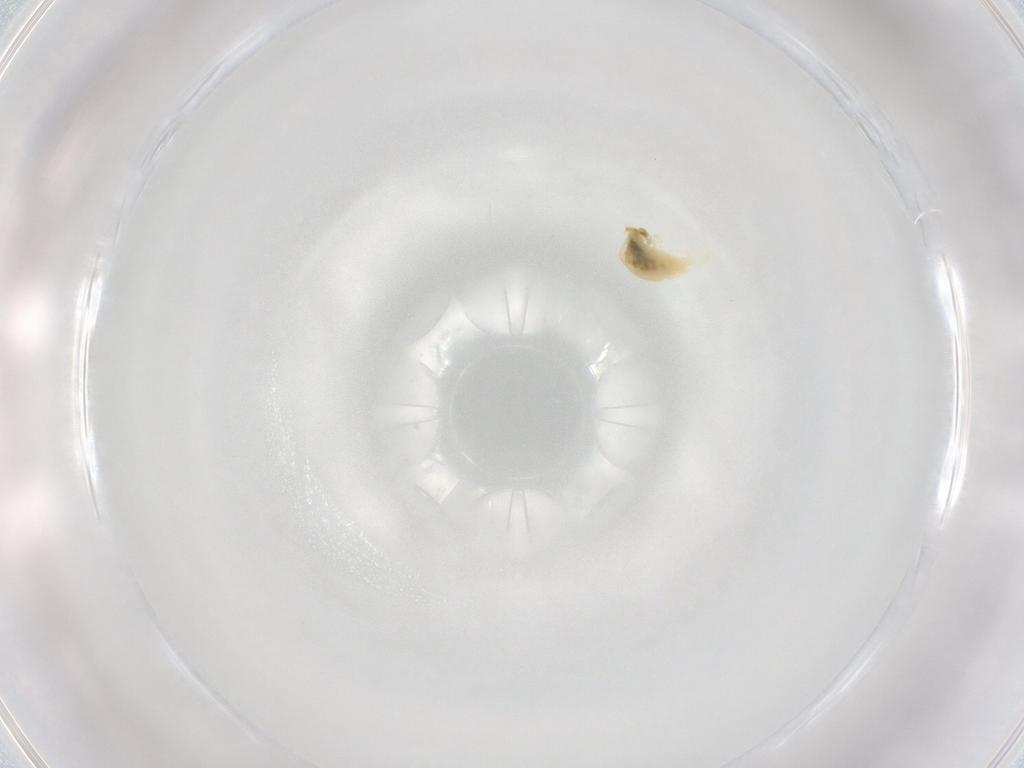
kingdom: Animalia
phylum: Arthropoda
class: Arachnida
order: Trombidiformes
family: Tetranychidae
